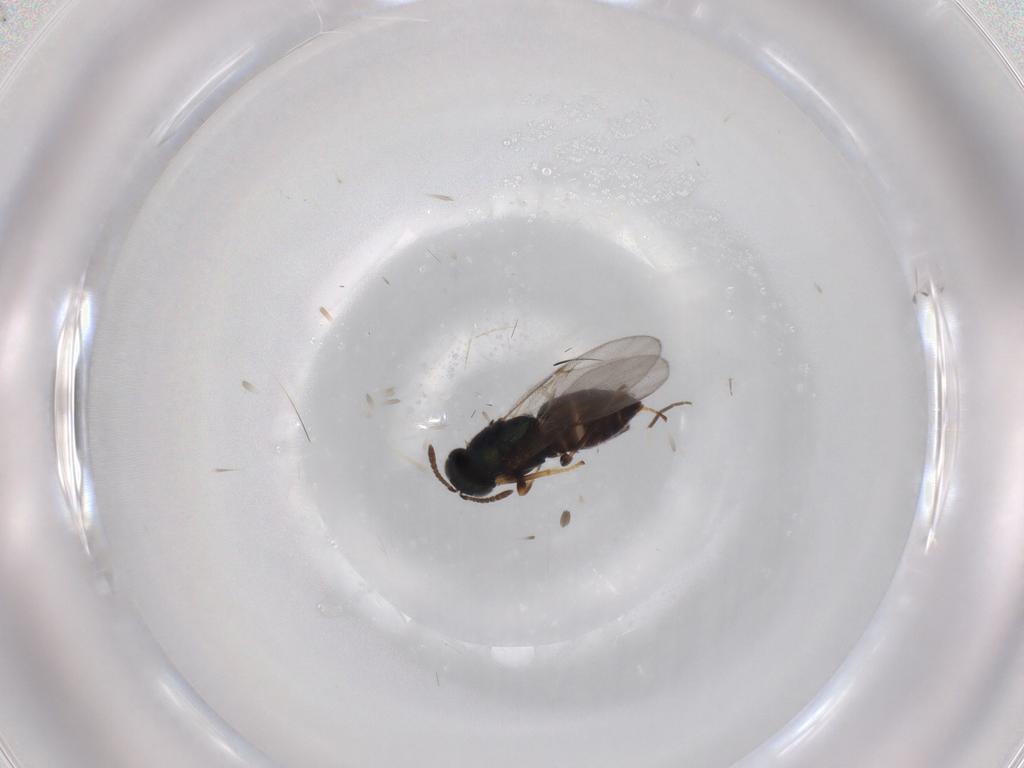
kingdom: Animalia
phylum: Arthropoda
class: Insecta
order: Hymenoptera
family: Encyrtidae
